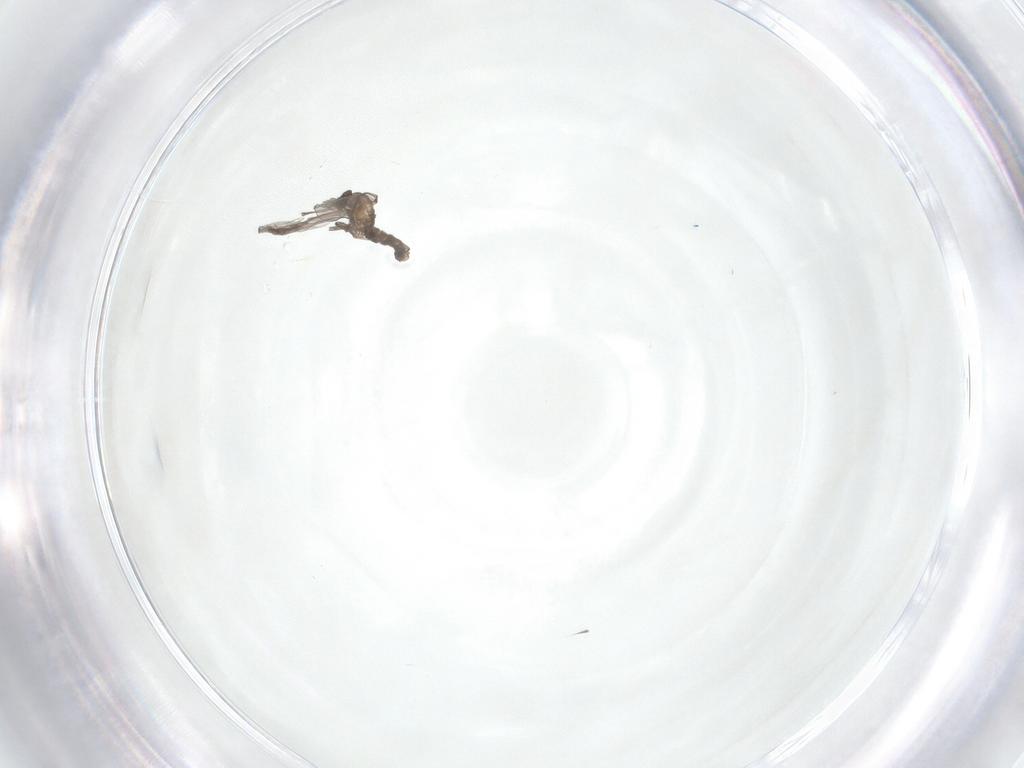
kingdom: Animalia
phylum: Arthropoda
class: Insecta
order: Diptera
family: Cecidomyiidae
